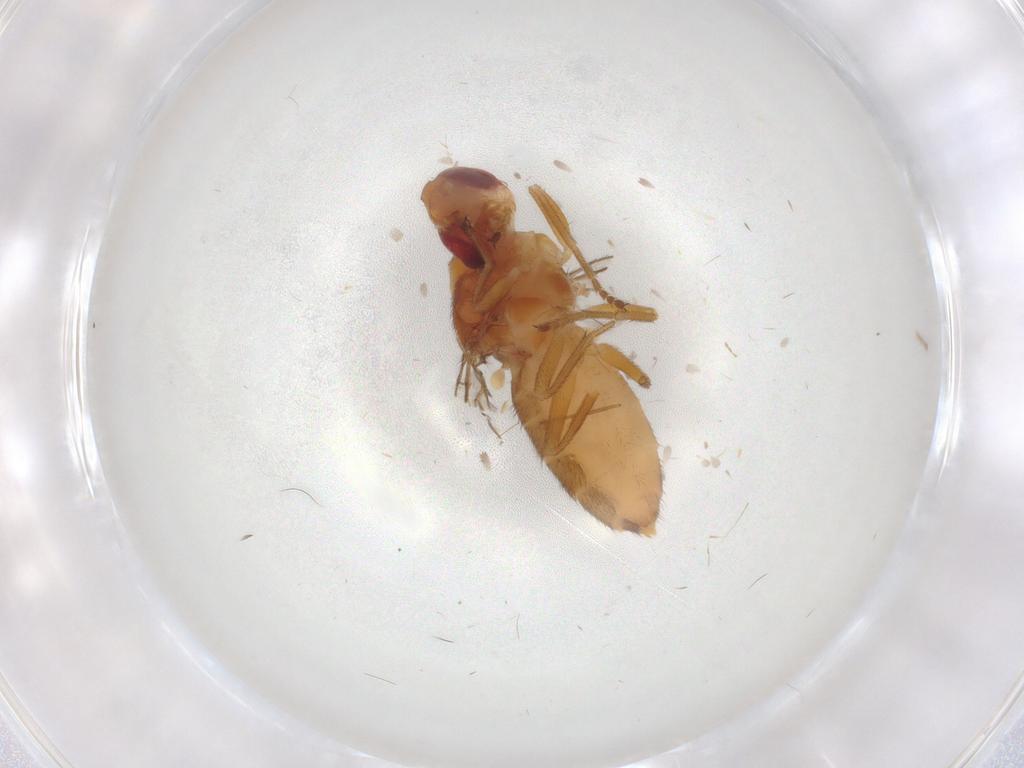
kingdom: Animalia
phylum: Arthropoda
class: Insecta
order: Diptera
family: Chloropidae
